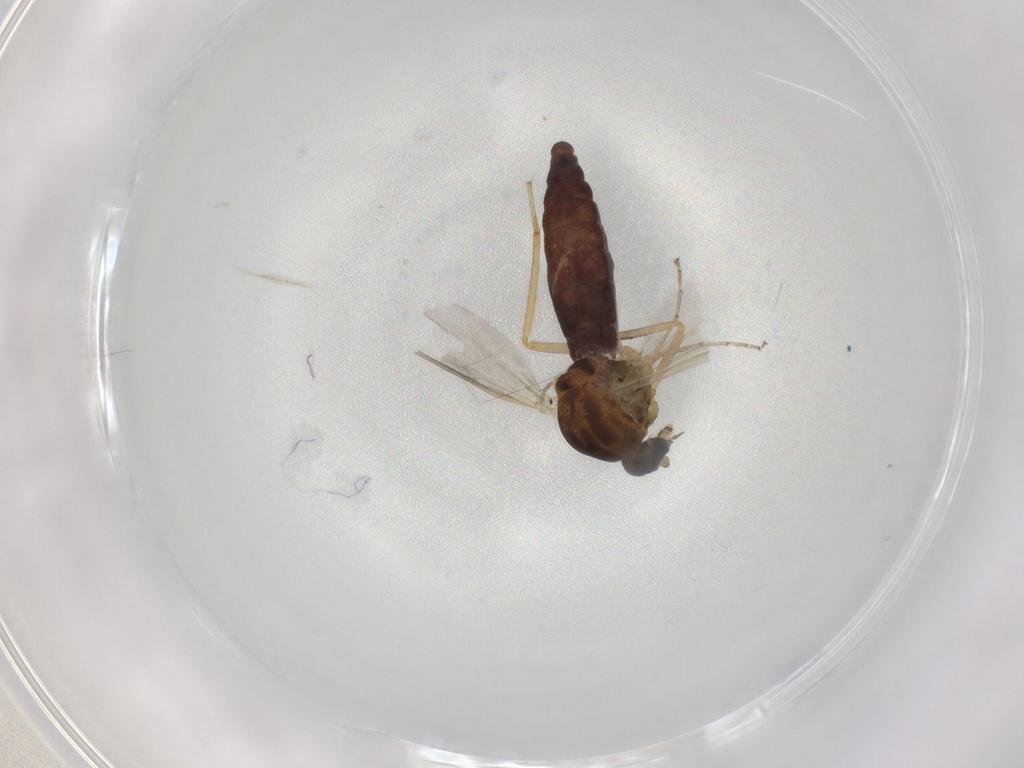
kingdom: Animalia
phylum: Arthropoda
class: Insecta
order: Diptera
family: Ceratopogonidae
